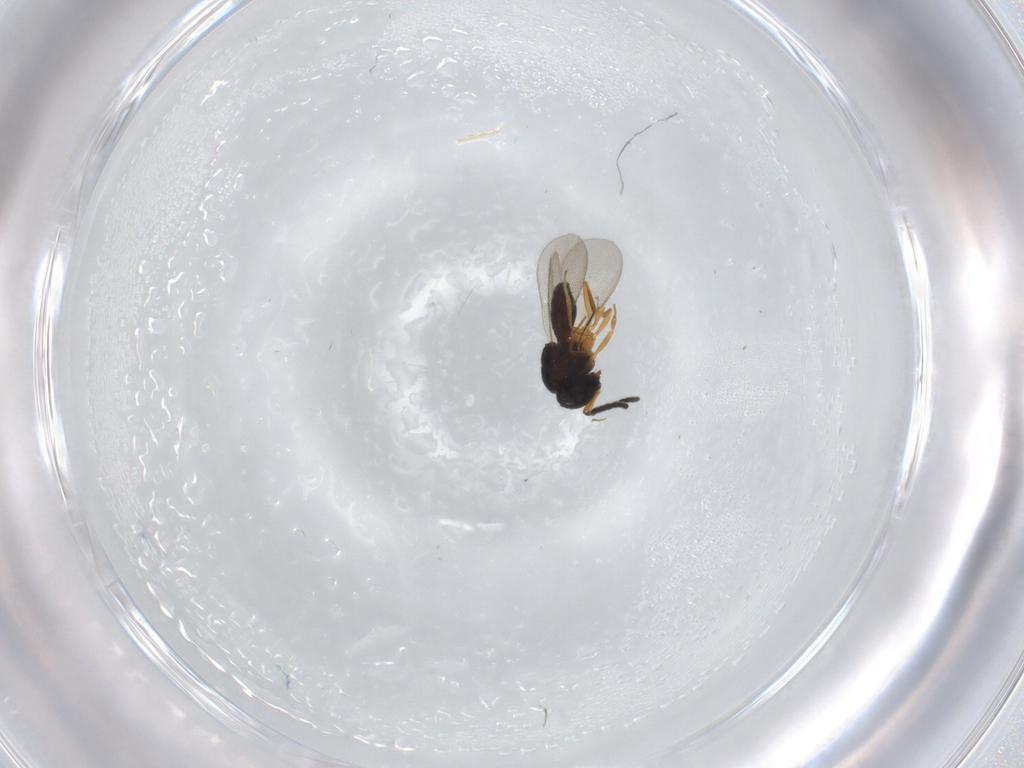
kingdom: Animalia
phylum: Arthropoda
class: Insecta
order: Coleoptera
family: Curculionidae
